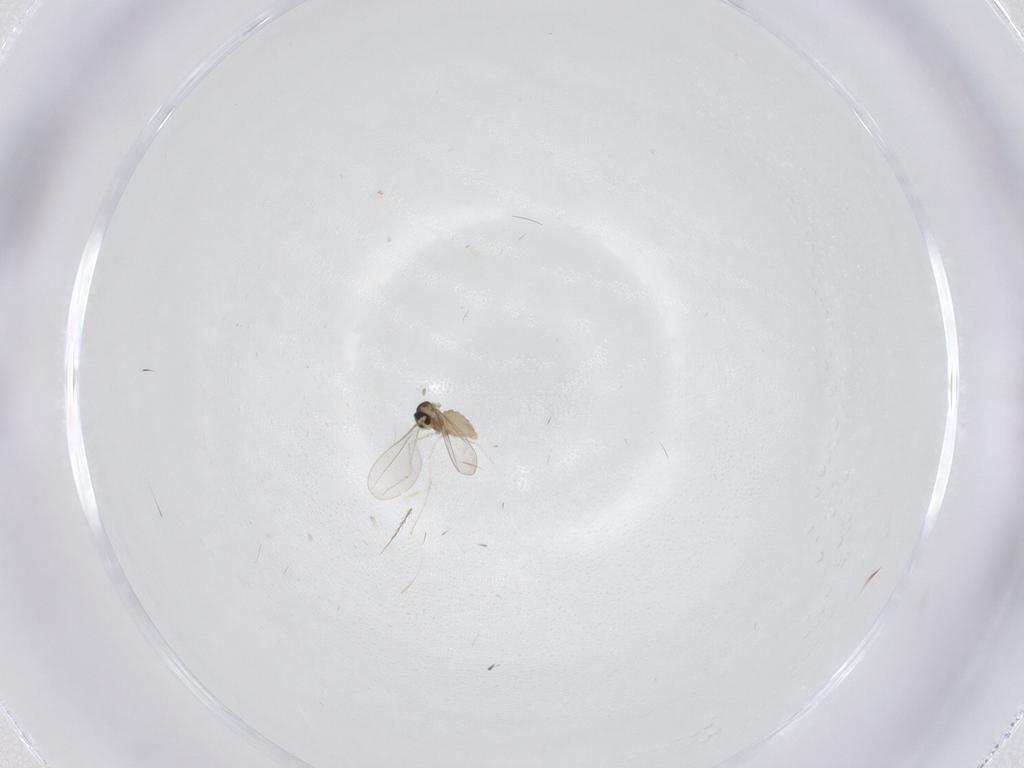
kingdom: Animalia
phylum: Arthropoda
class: Insecta
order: Diptera
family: Cecidomyiidae
